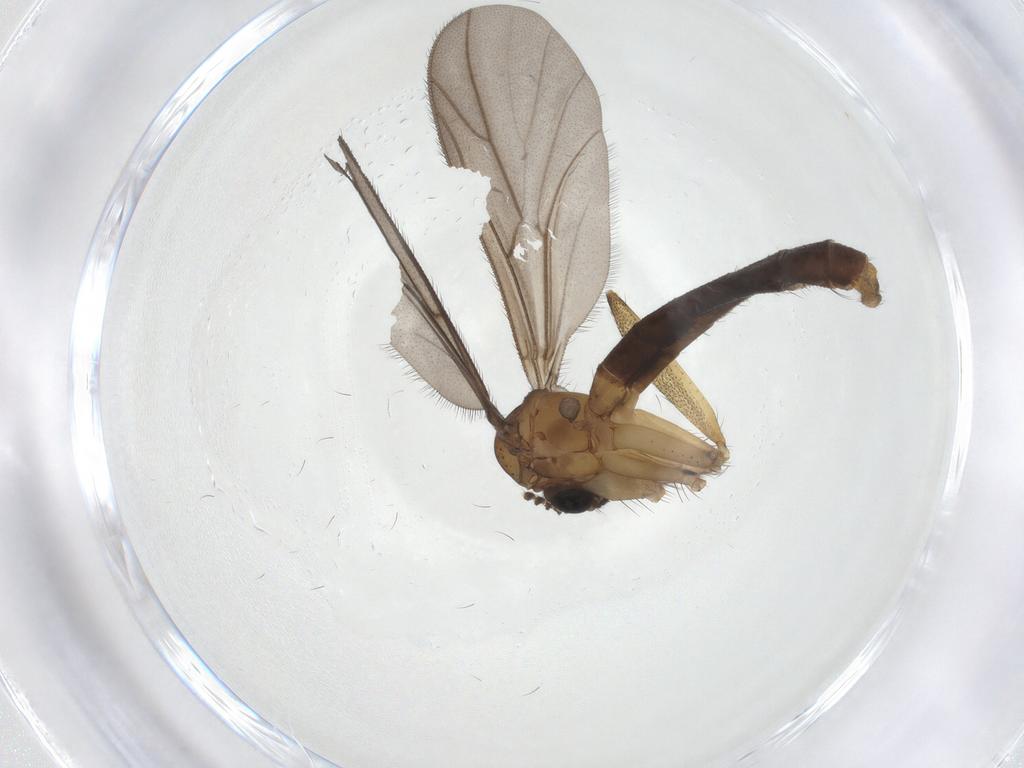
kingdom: Animalia
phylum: Arthropoda
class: Insecta
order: Diptera
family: Ditomyiidae
